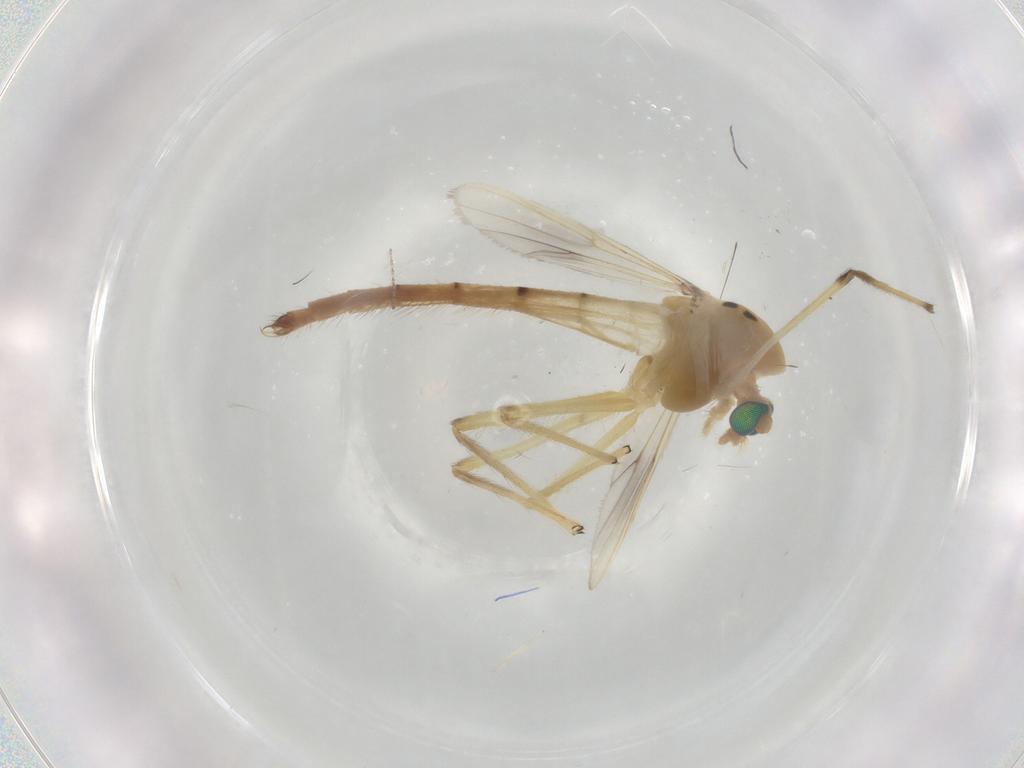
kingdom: Animalia
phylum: Arthropoda
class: Insecta
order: Diptera
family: Chironomidae
